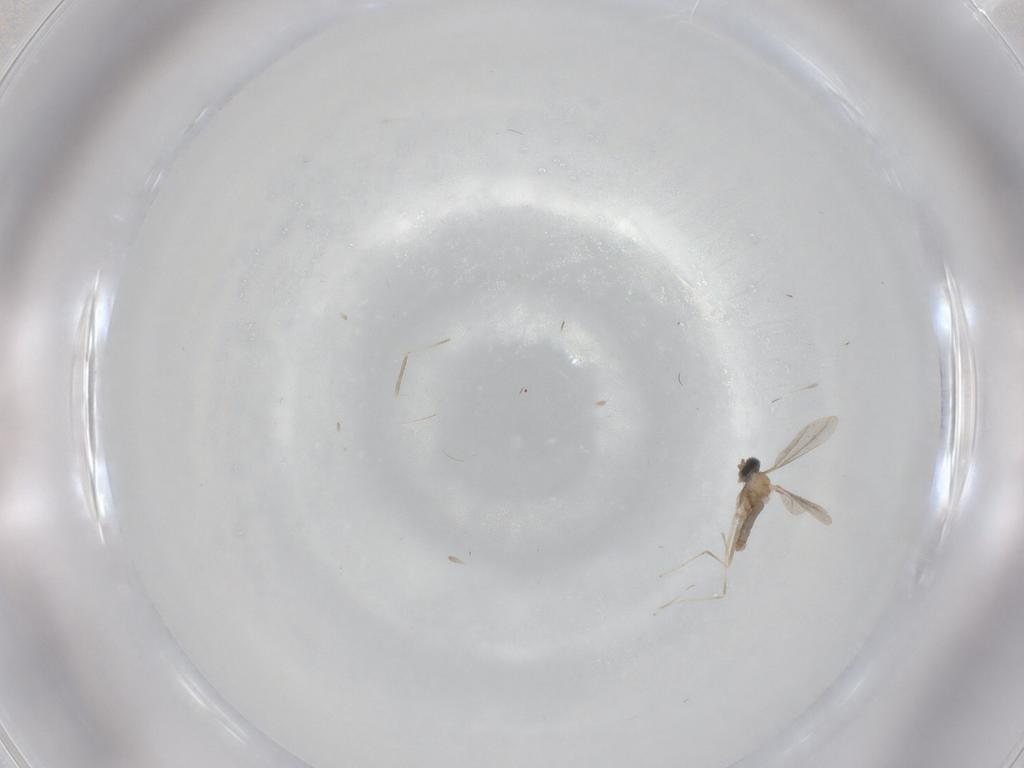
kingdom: Animalia
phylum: Arthropoda
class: Insecta
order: Diptera
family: Cecidomyiidae
